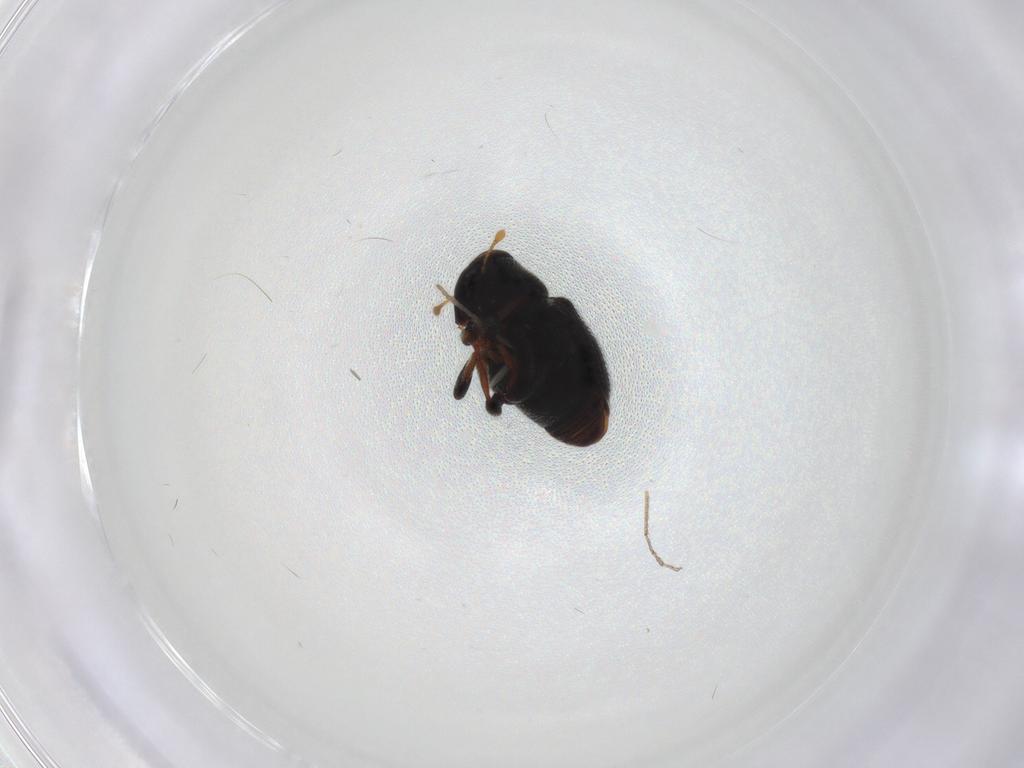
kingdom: Animalia
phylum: Arthropoda
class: Insecta
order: Coleoptera
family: Curculionidae
